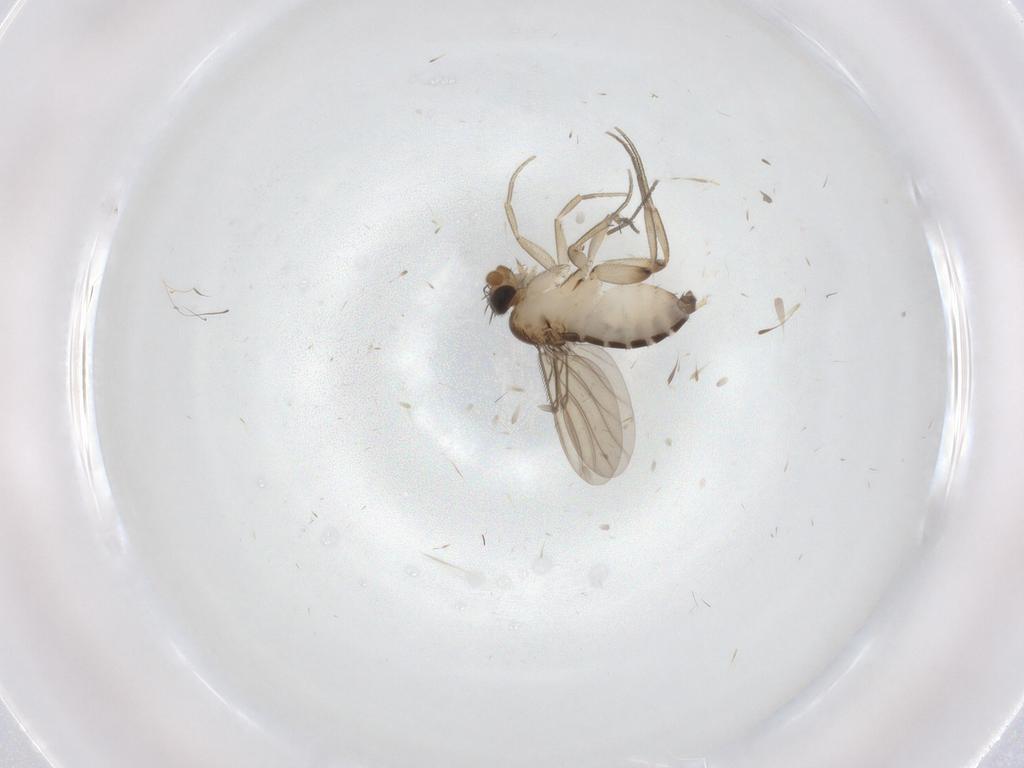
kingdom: Animalia
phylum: Arthropoda
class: Insecta
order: Diptera
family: Phoridae
